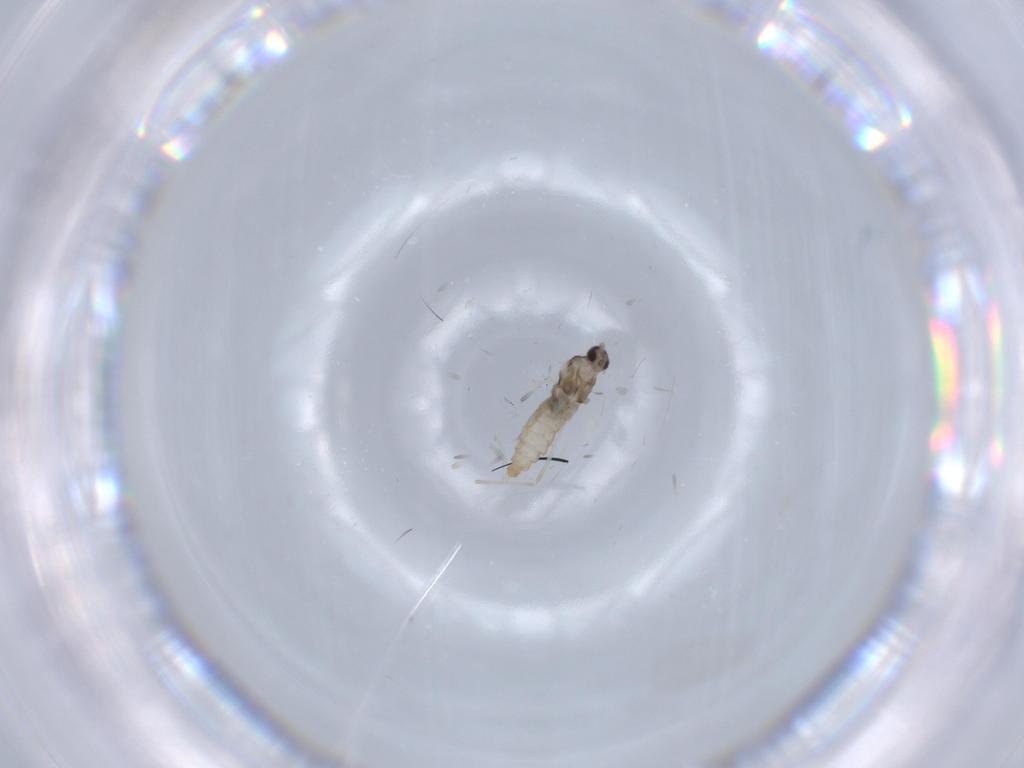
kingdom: Animalia
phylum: Arthropoda
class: Insecta
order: Diptera
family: Cecidomyiidae
